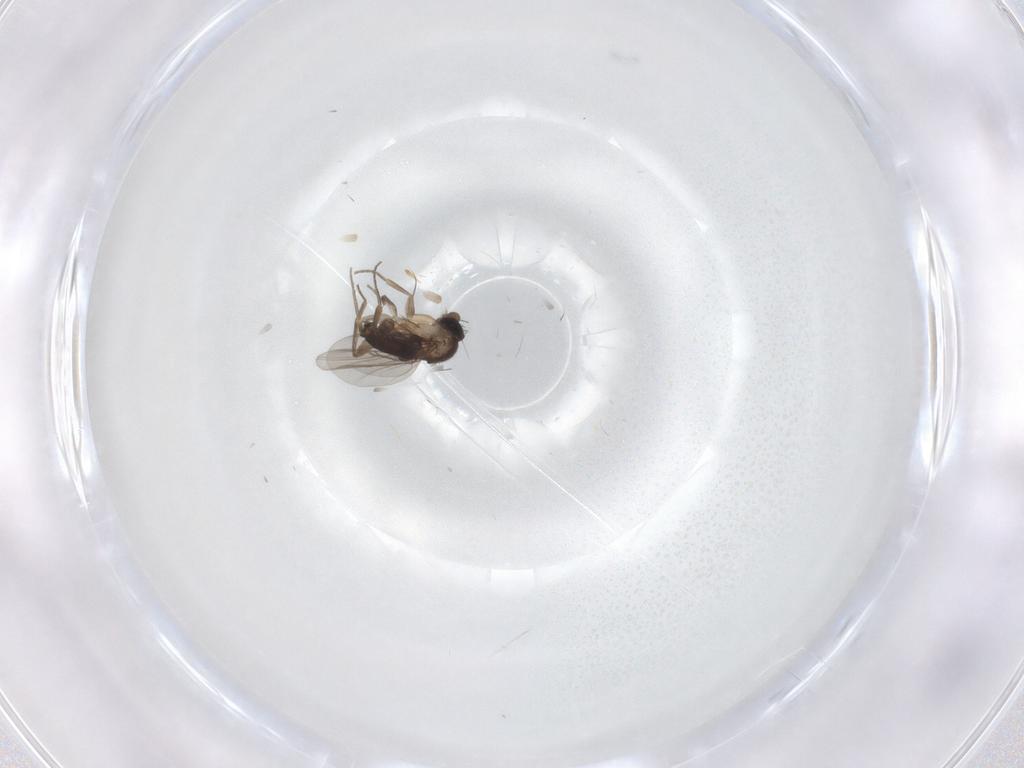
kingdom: Animalia
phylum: Arthropoda
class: Insecta
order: Diptera
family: Phoridae
